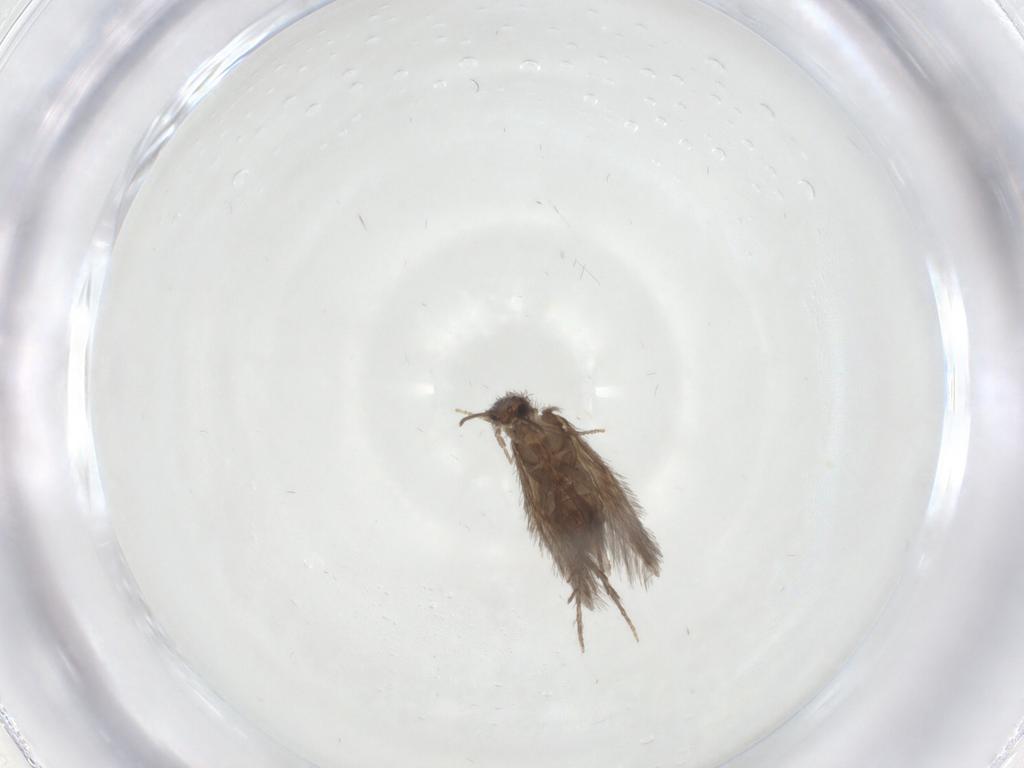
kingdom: Animalia
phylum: Arthropoda
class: Insecta
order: Trichoptera
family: Hydroptilidae
